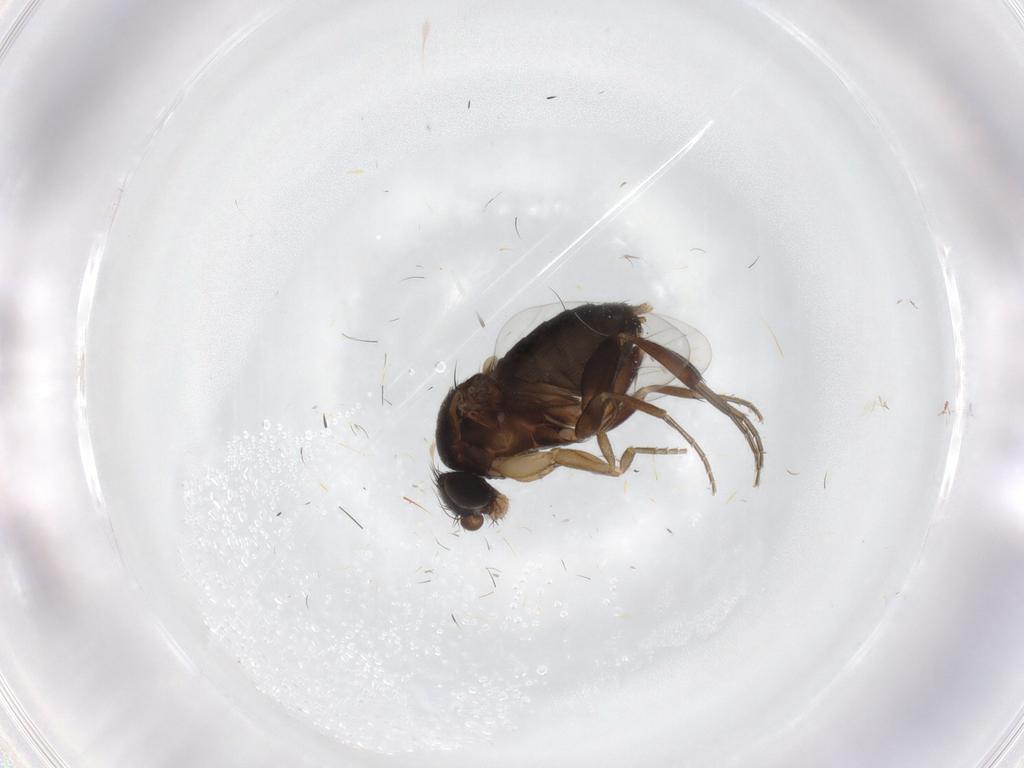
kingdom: Animalia
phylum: Arthropoda
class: Insecta
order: Diptera
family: Phoridae
